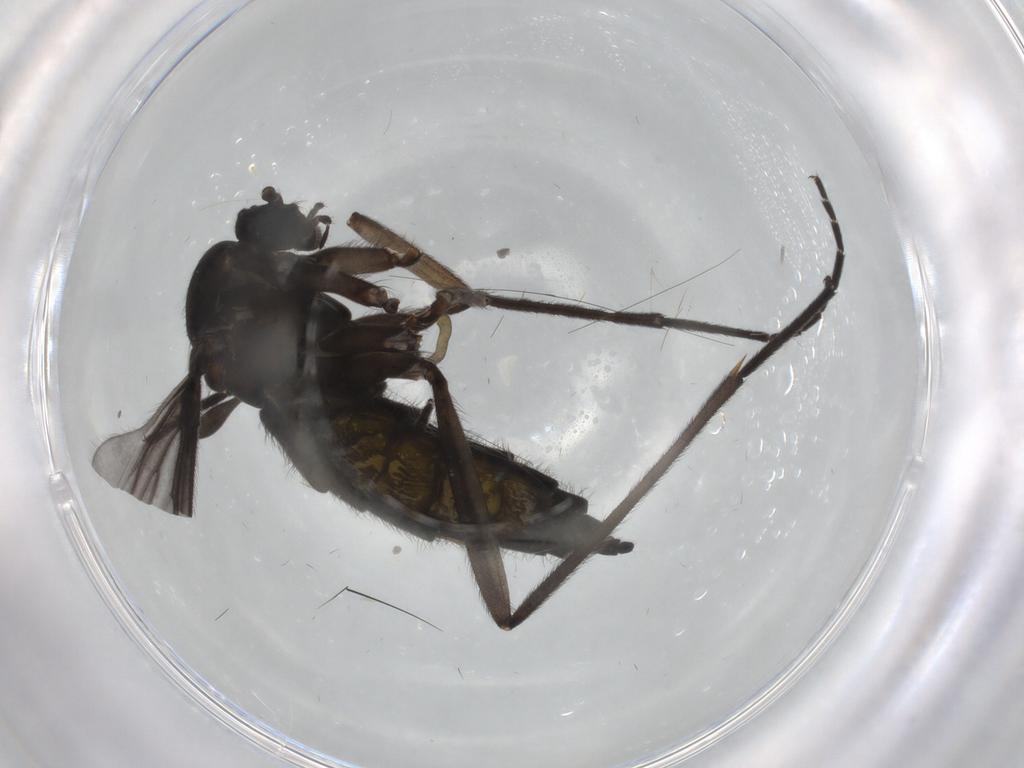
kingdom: Animalia
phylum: Arthropoda
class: Insecta
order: Diptera
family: Sciaridae
